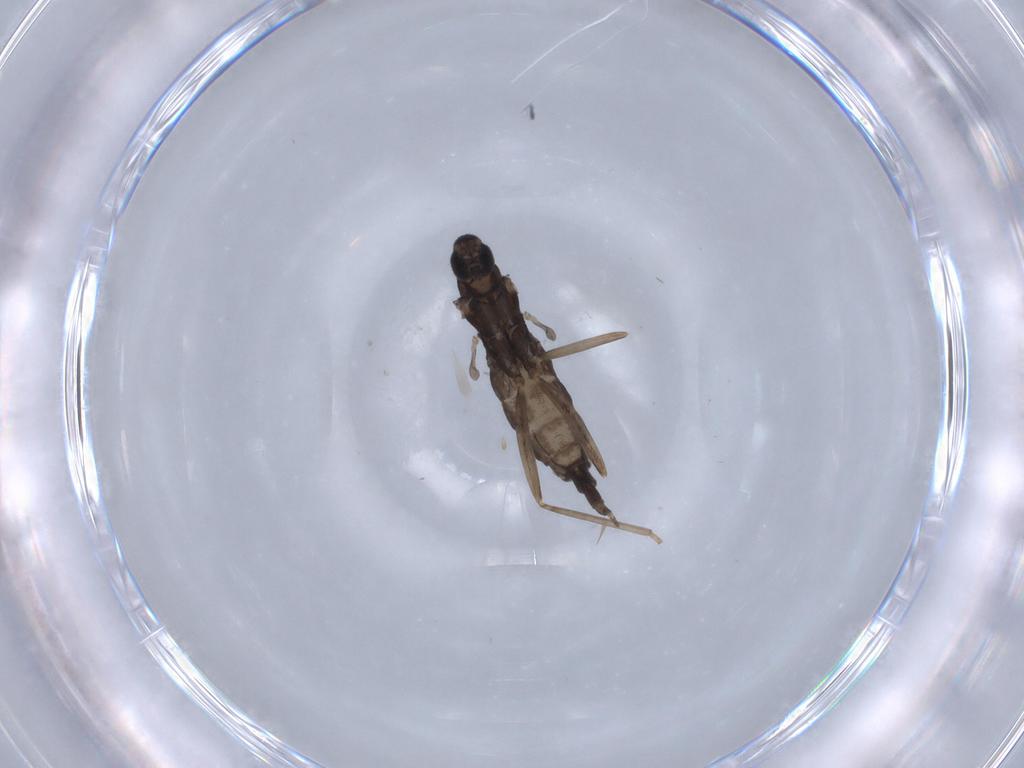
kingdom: Animalia
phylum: Arthropoda
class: Insecta
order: Diptera
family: Cecidomyiidae
